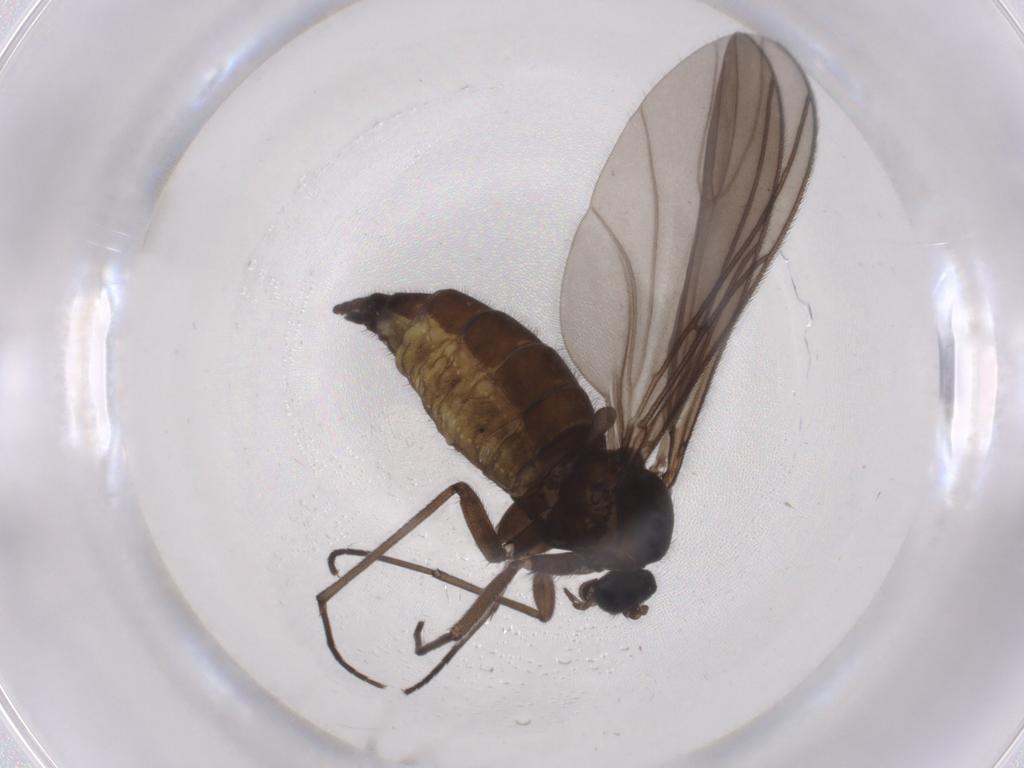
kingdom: Animalia
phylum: Arthropoda
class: Insecta
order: Diptera
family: Sciaridae
